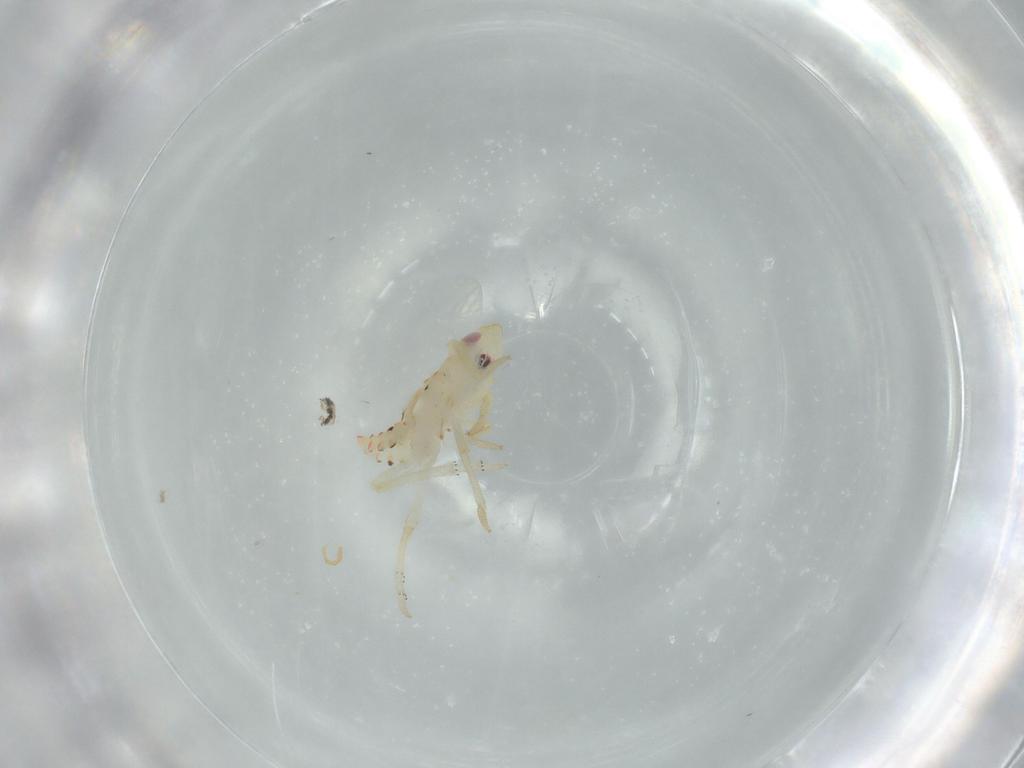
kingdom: Animalia
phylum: Arthropoda
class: Insecta
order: Hemiptera
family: Tropiduchidae
